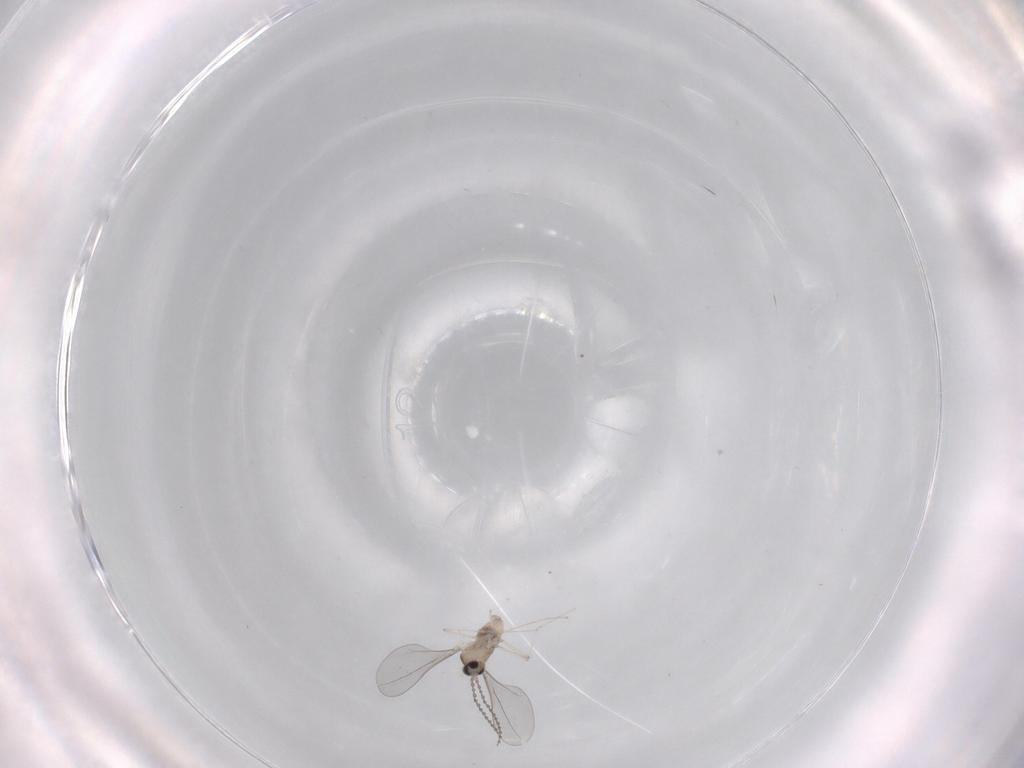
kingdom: Animalia
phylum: Arthropoda
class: Insecta
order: Diptera
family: Cecidomyiidae
